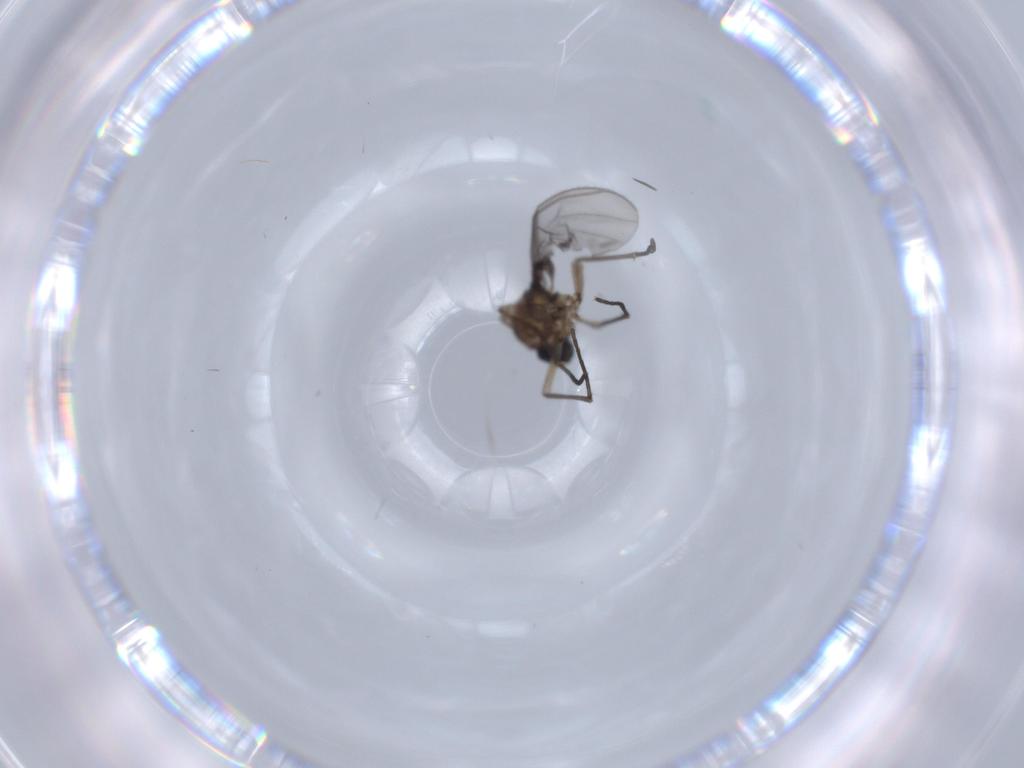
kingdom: Animalia
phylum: Arthropoda
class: Insecta
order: Diptera
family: Sciaridae
